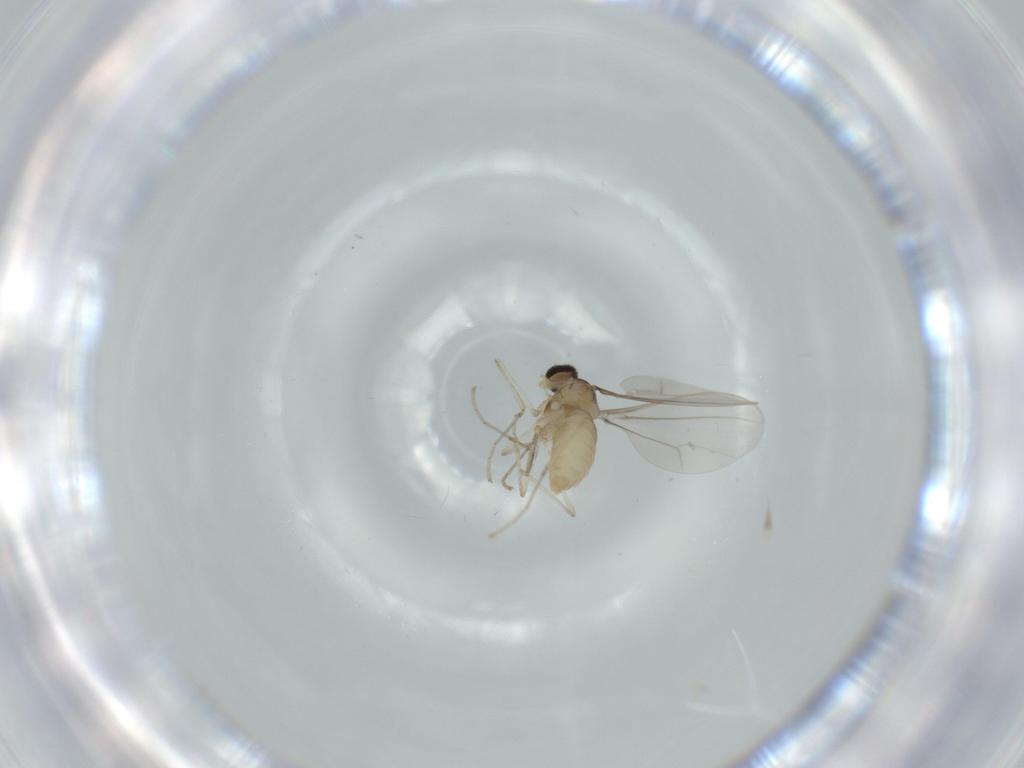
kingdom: Animalia
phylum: Arthropoda
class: Insecta
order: Diptera
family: Cecidomyiidae
